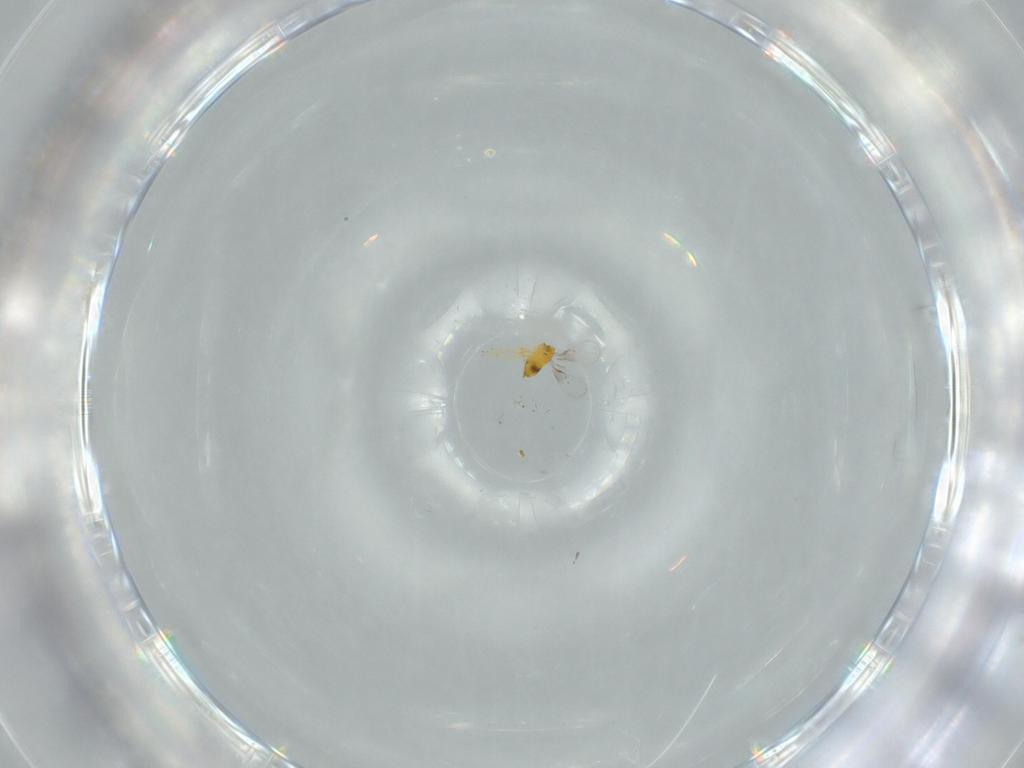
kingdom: Animalia
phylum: Arthropoda
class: Insecta
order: Hymenoptera
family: Trichogrammatidae
